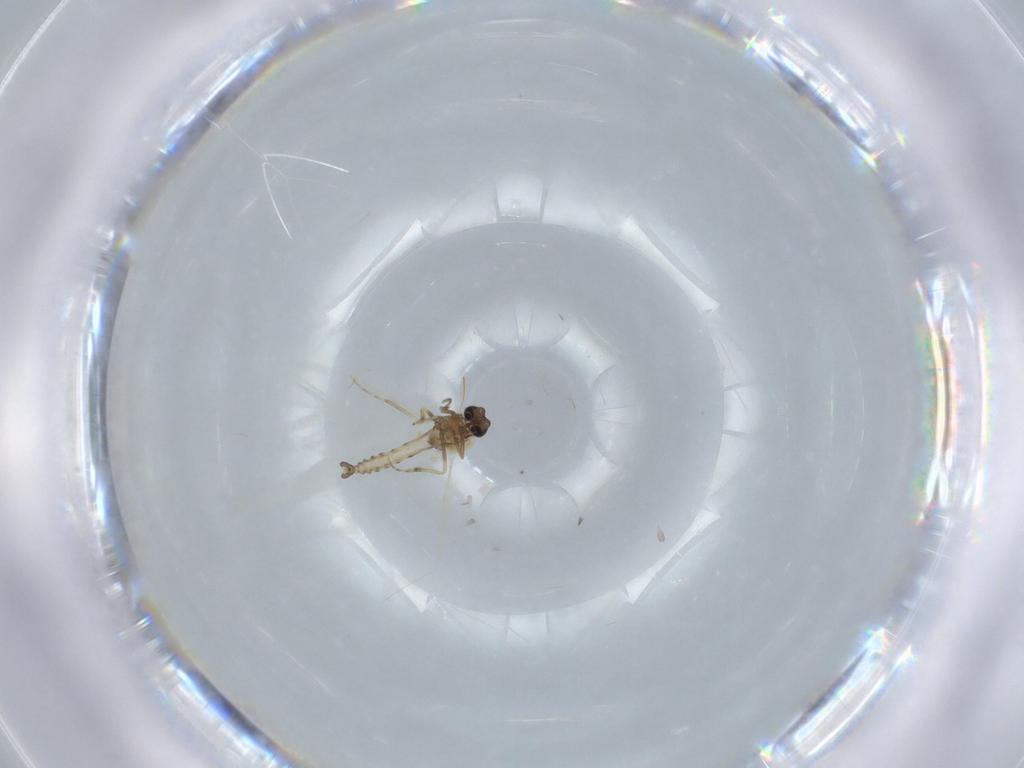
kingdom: Animalia
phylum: Arthropoda
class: Insecta
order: Diptera
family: Ceratopogonidae
